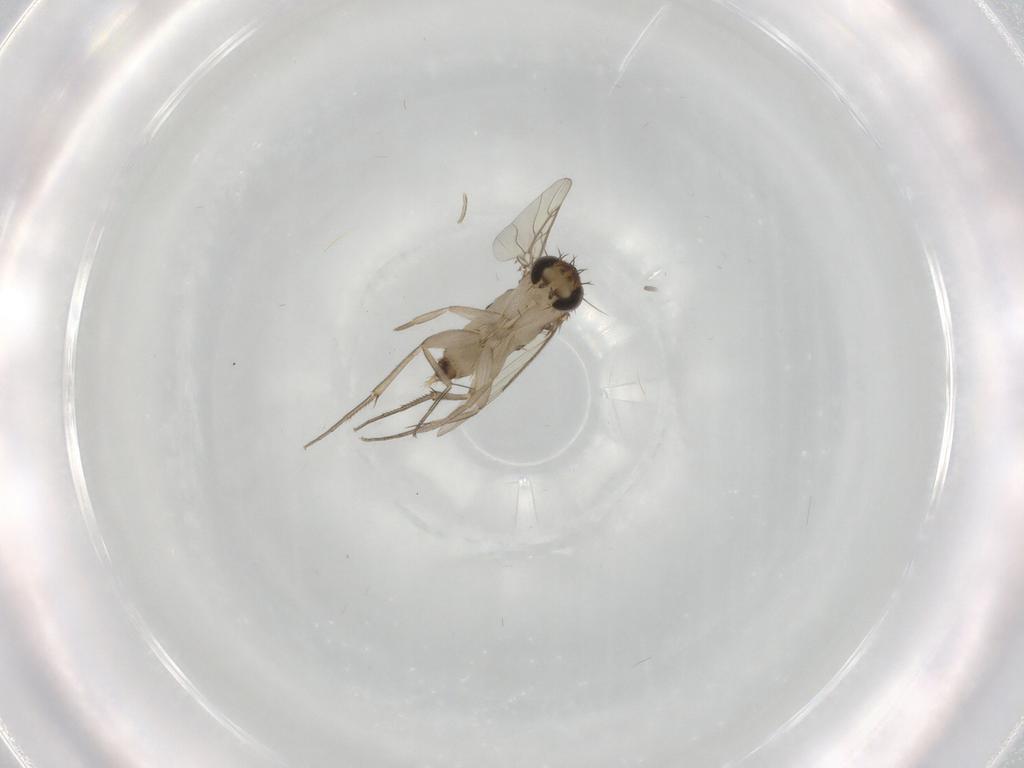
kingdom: Animalia
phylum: Arthropoda
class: Insecta
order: Diptera
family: Phoridae
